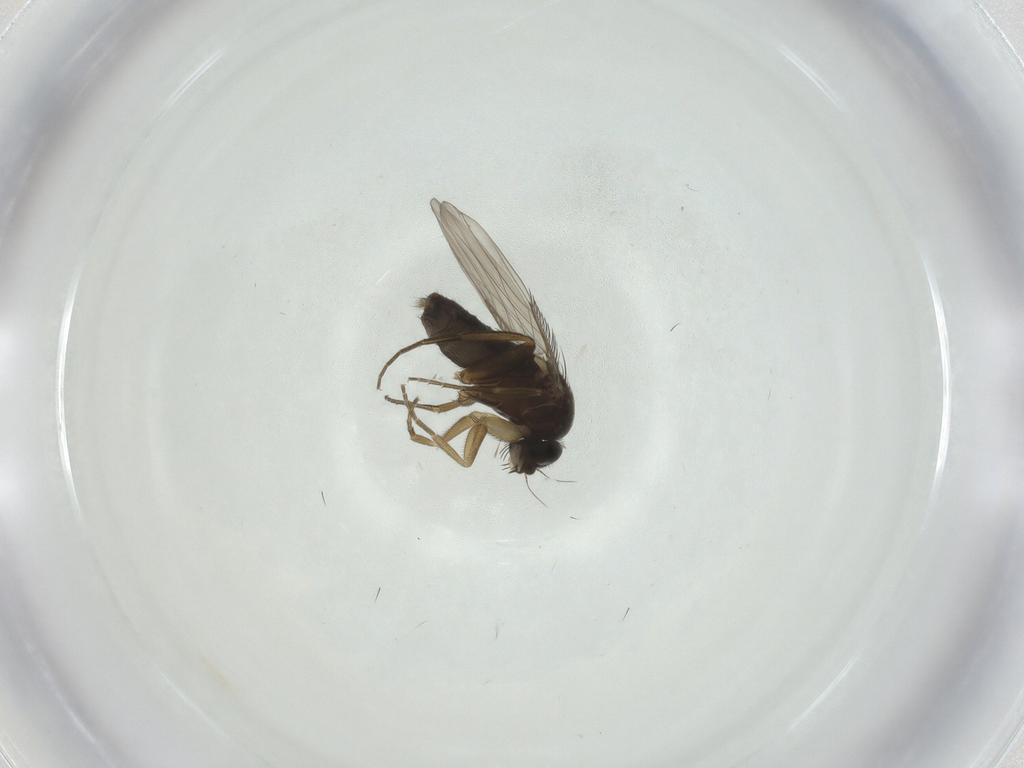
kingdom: Animalia
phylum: Arthropoda
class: Insecta
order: Diptera
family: Phoridae
